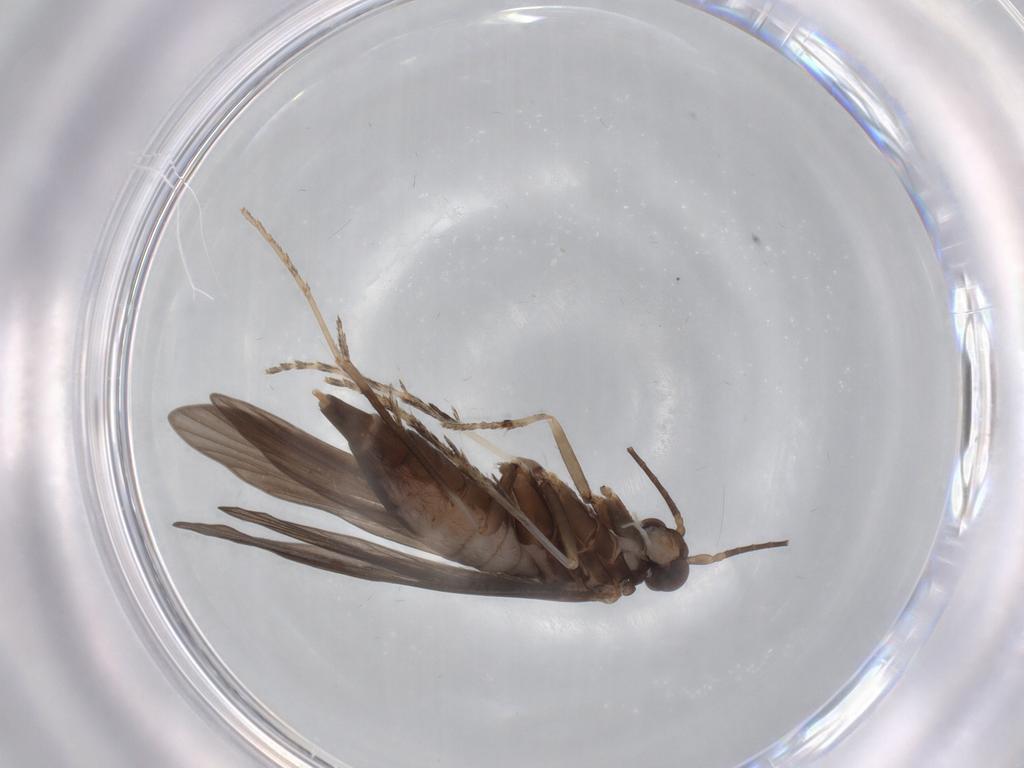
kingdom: Animalia
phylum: Arthropoda
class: Insecta
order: Trichoptera
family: Xiphocentronidae
